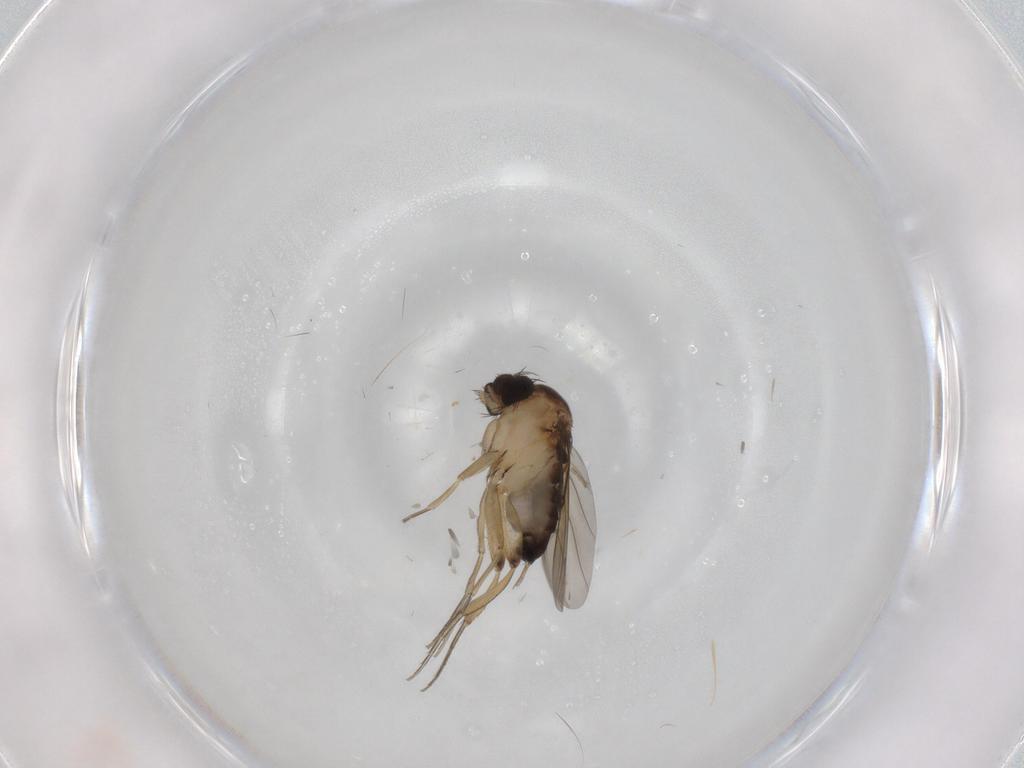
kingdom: Animalia
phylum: Arthropoda
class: Insecta
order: Diptera
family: Phoridae
